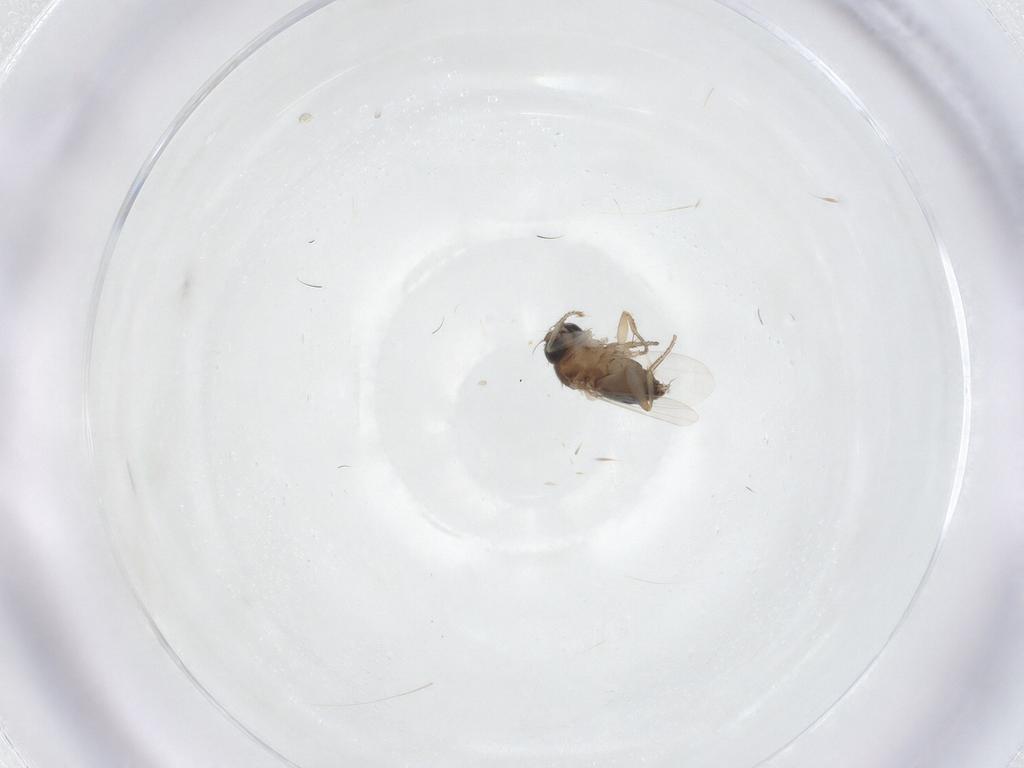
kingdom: Animalia
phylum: Arthropoda
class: Insecta
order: Diptera
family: Phoridae
